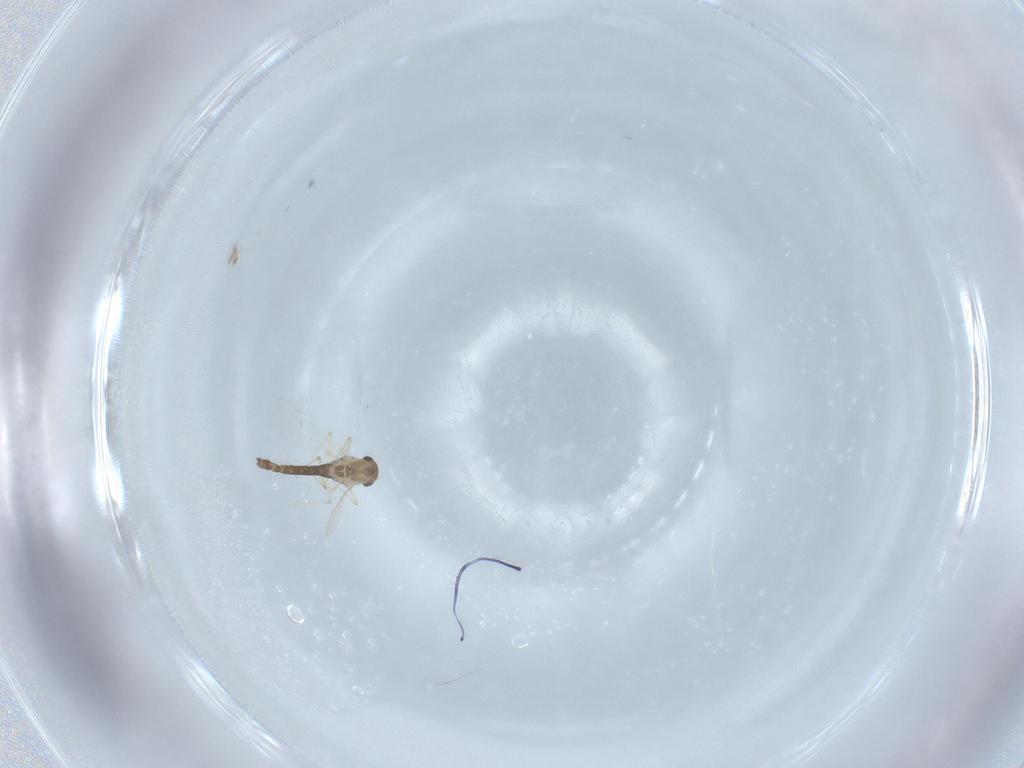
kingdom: Animalia
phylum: Arthropoda
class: Insecta
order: Diptera
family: Chironomidae
